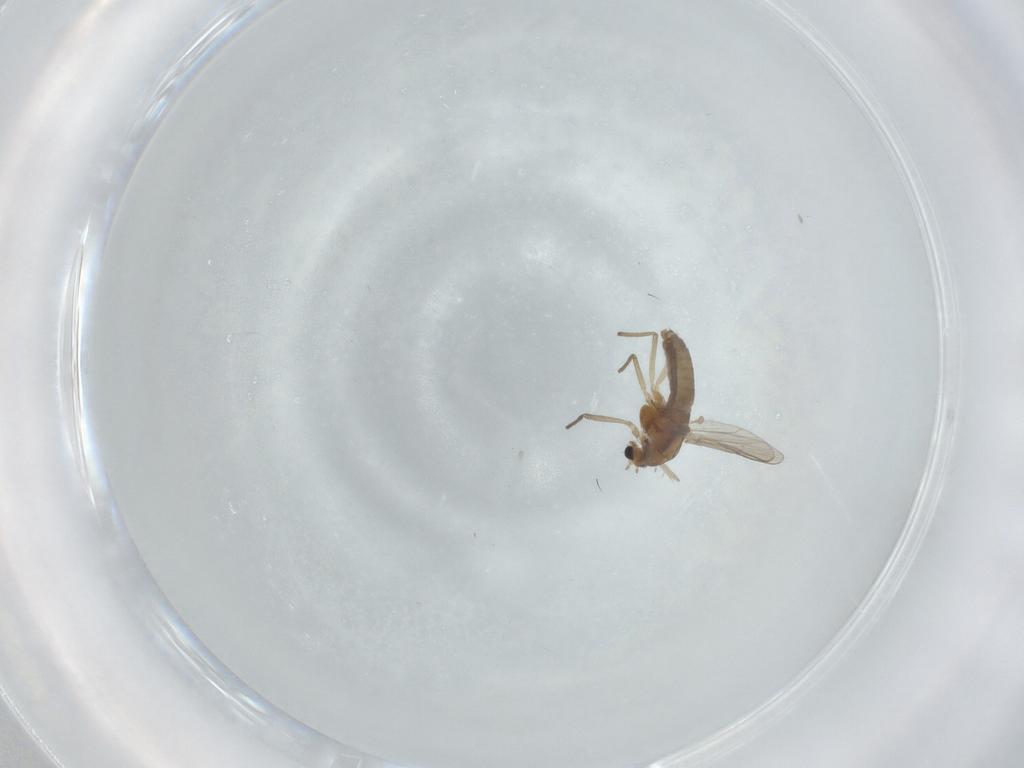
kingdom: Animalia
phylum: Arthropoda
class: Insecta
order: Diptera
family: Chironomidae
